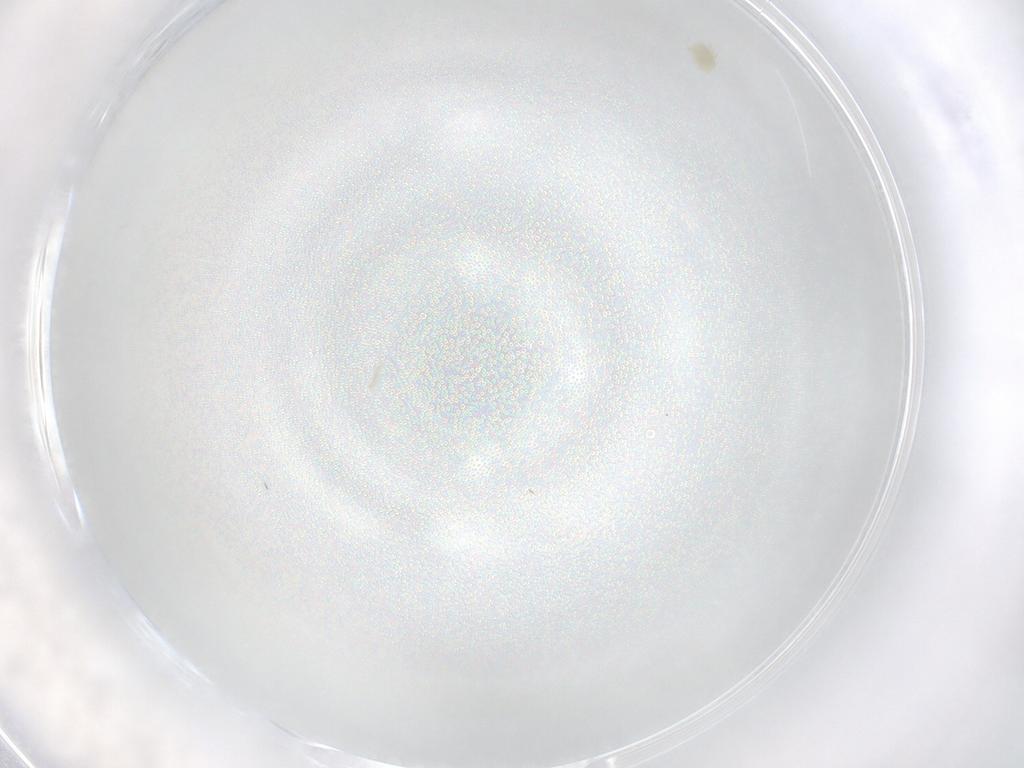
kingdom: Animalia
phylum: Arthropoda
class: Arachnida
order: Trombidiformes
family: Eupodidae
